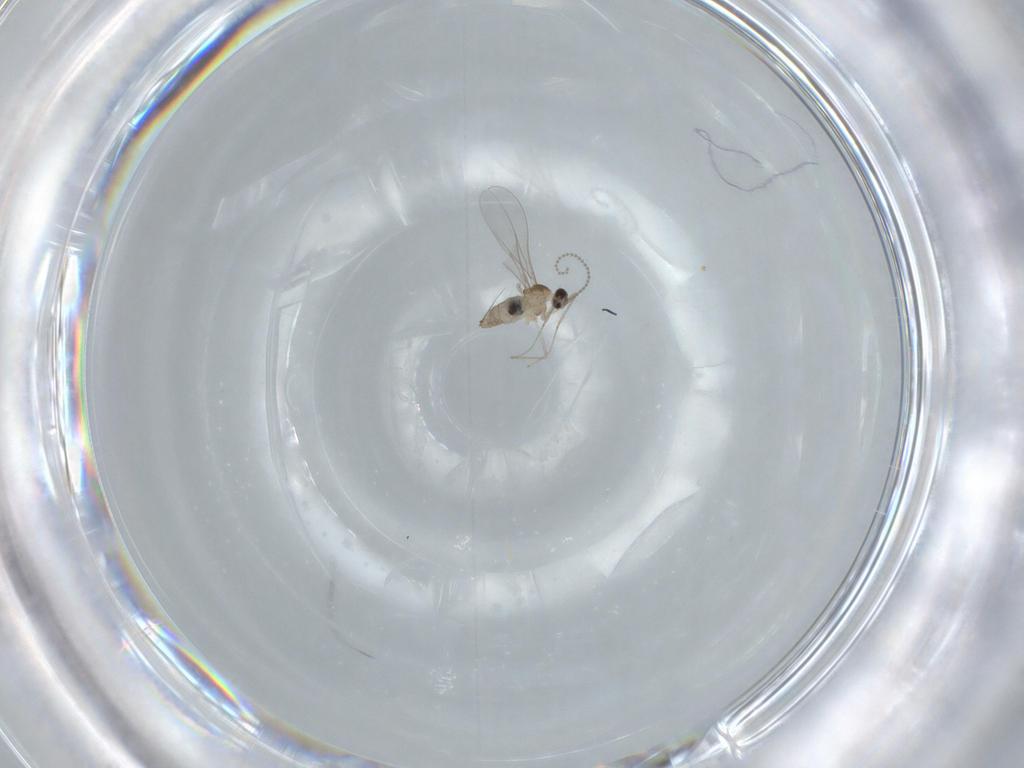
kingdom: Animalia
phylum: Arthropoda
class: Insecta
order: Diptera
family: Cecidomyiidae
